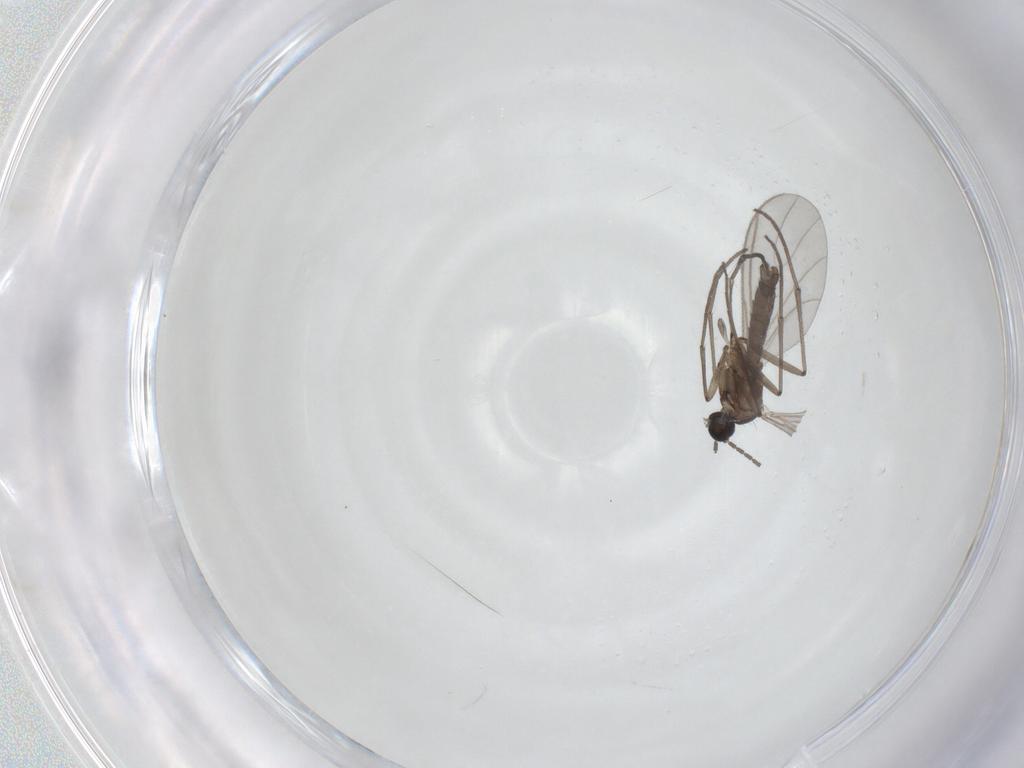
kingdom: Animalia
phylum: Arthropoda
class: Insecta
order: Diptera
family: Sciaridae
